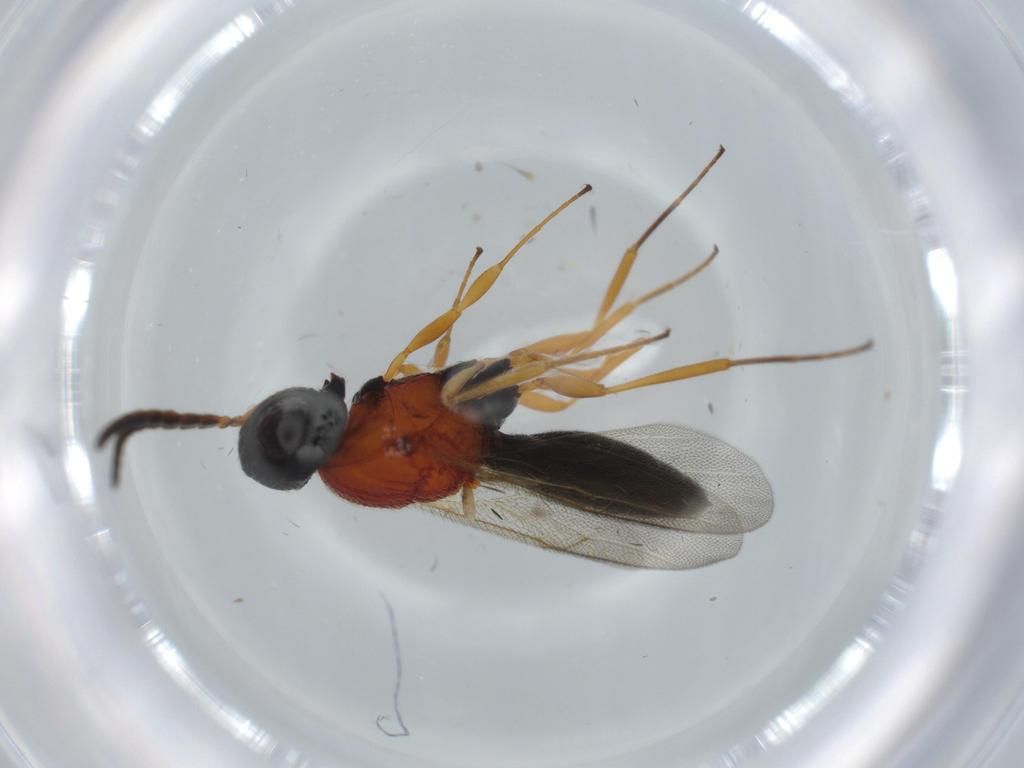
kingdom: Animalia
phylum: Arthropoda
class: Insecta
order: Hymenoptera
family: Scelionidae
